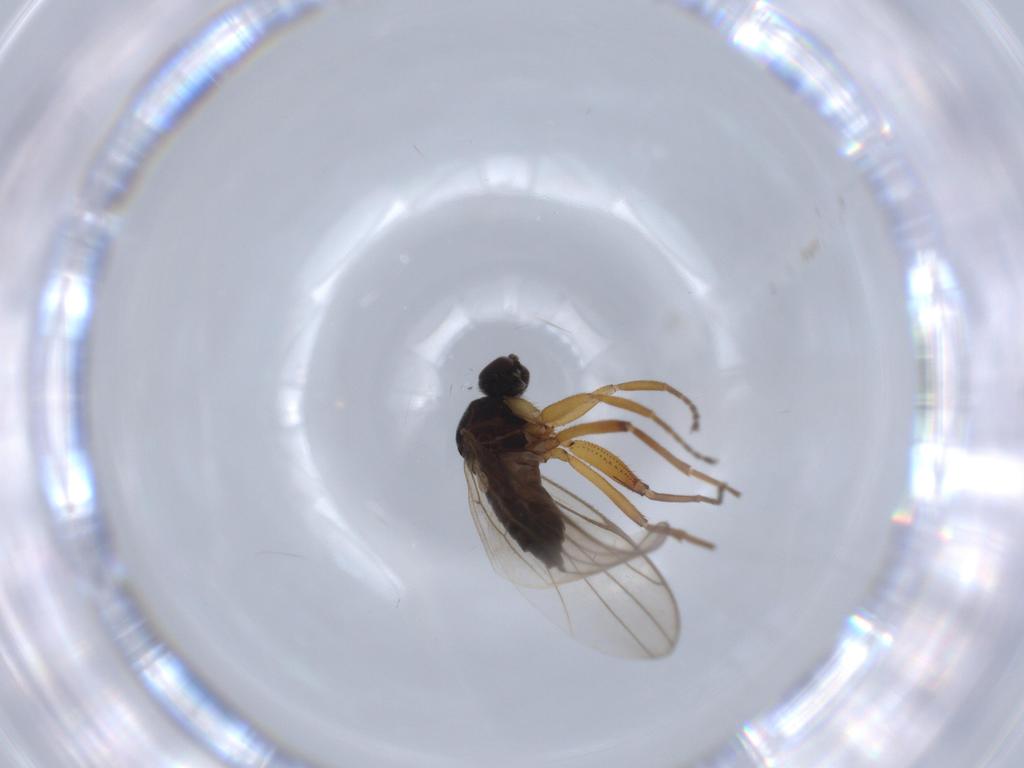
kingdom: Animalia
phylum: Arthropoda
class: Insecta
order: Diptera
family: Hybotidae
